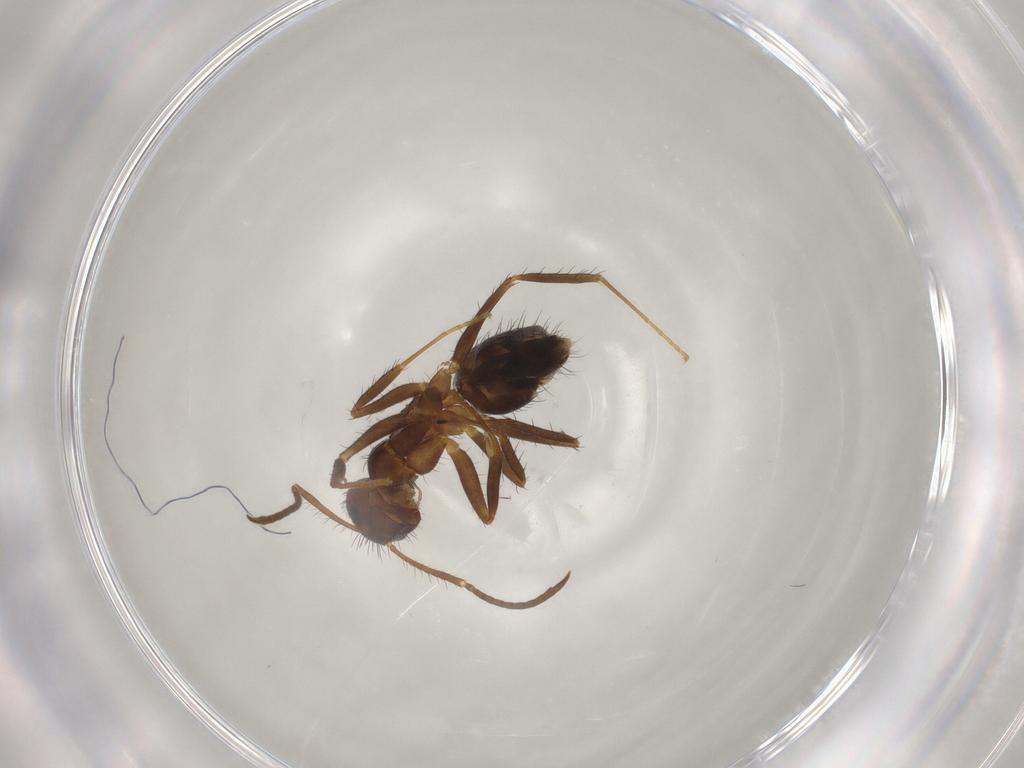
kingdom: Animalia
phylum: Arthropoda
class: Insecta
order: Hymenoptera
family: Formicidae
